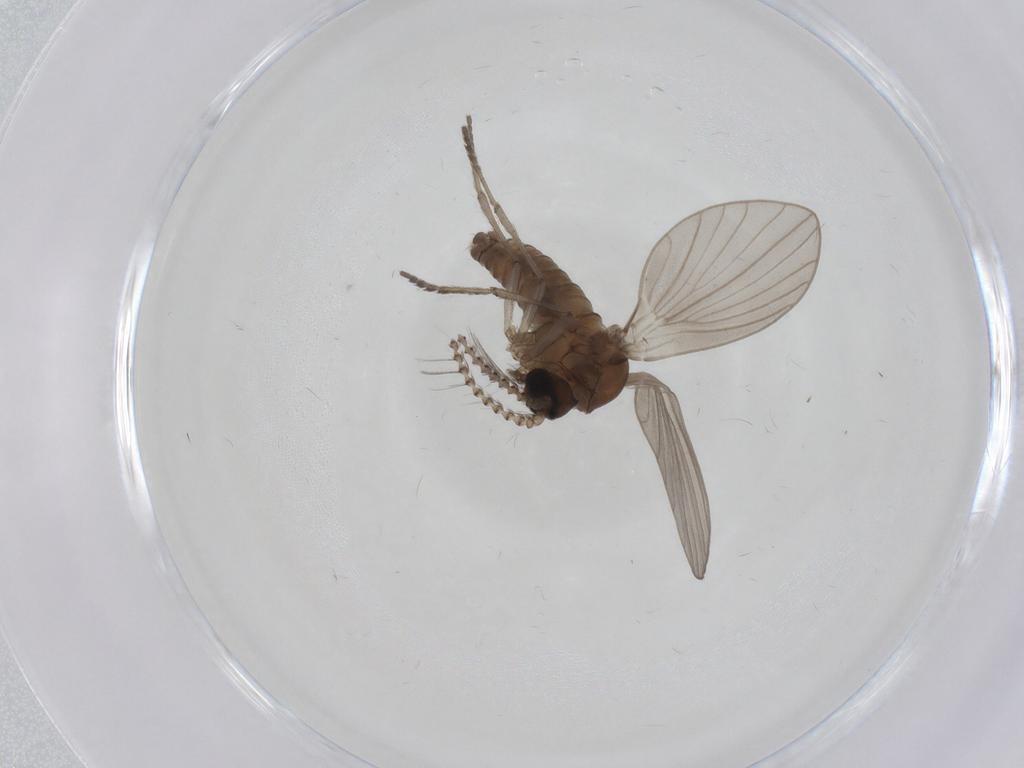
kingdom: Animalia
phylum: Arthropoda
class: Insecta
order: Diptera
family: Psychodidae
